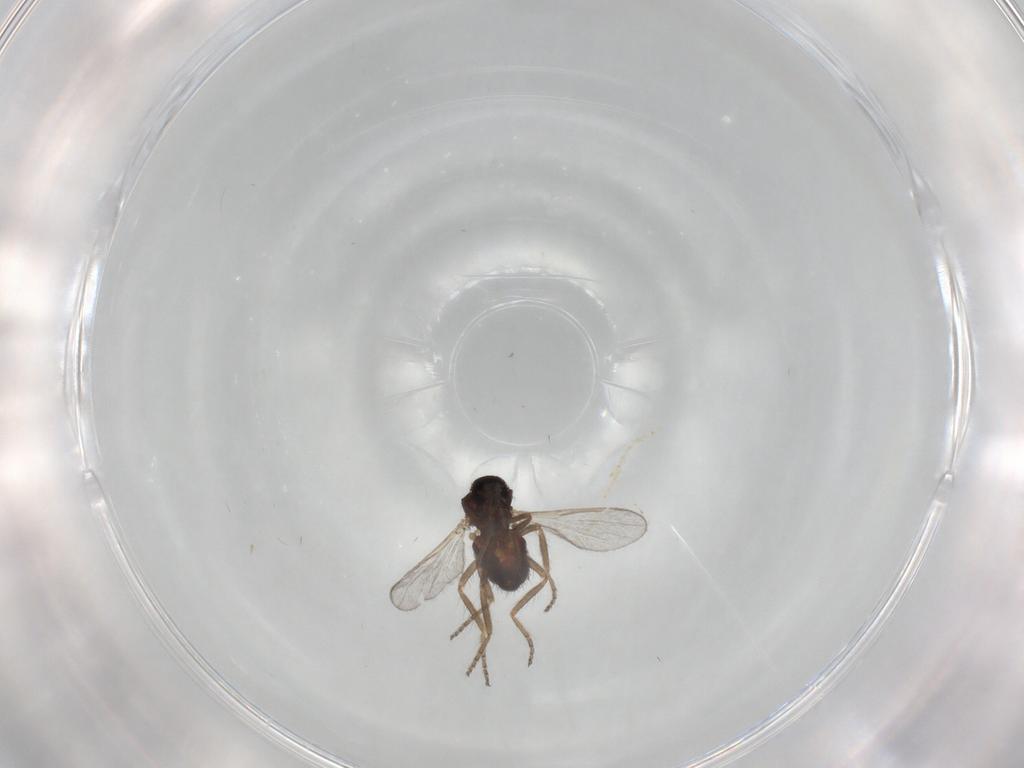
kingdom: Animalia
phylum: Arthropoda
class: Insecta
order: Diptera
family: Ceratopogonidae
